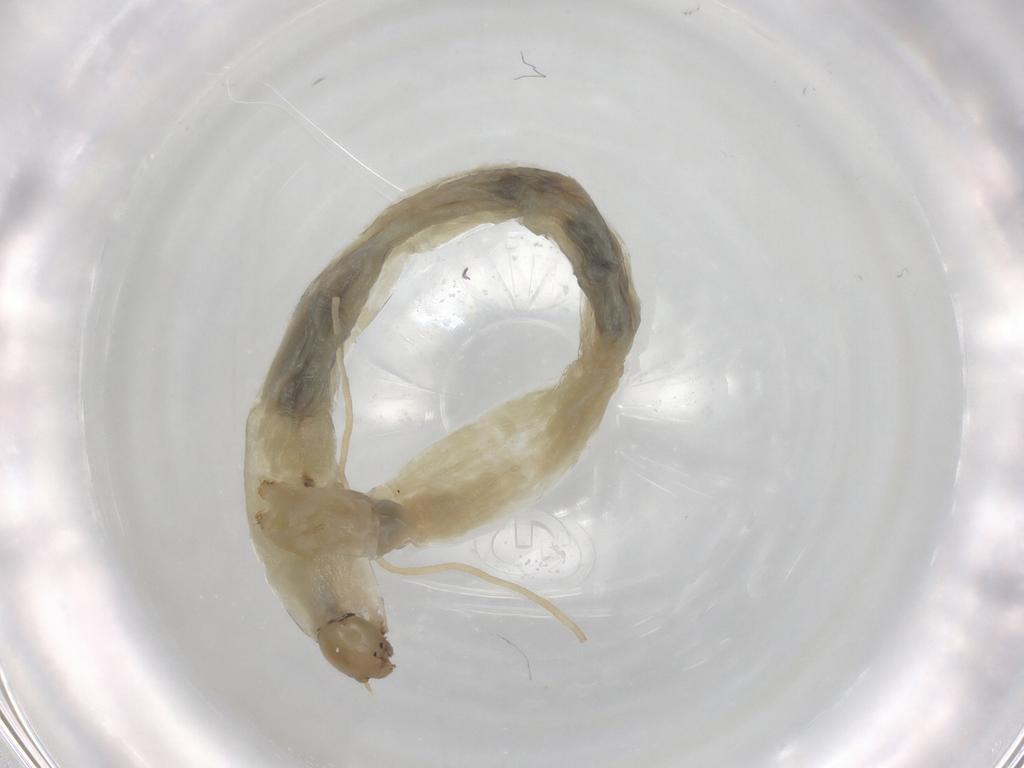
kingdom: Animalia
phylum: Arthropoda
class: Insecta
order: Diptera
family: Chironomidae
